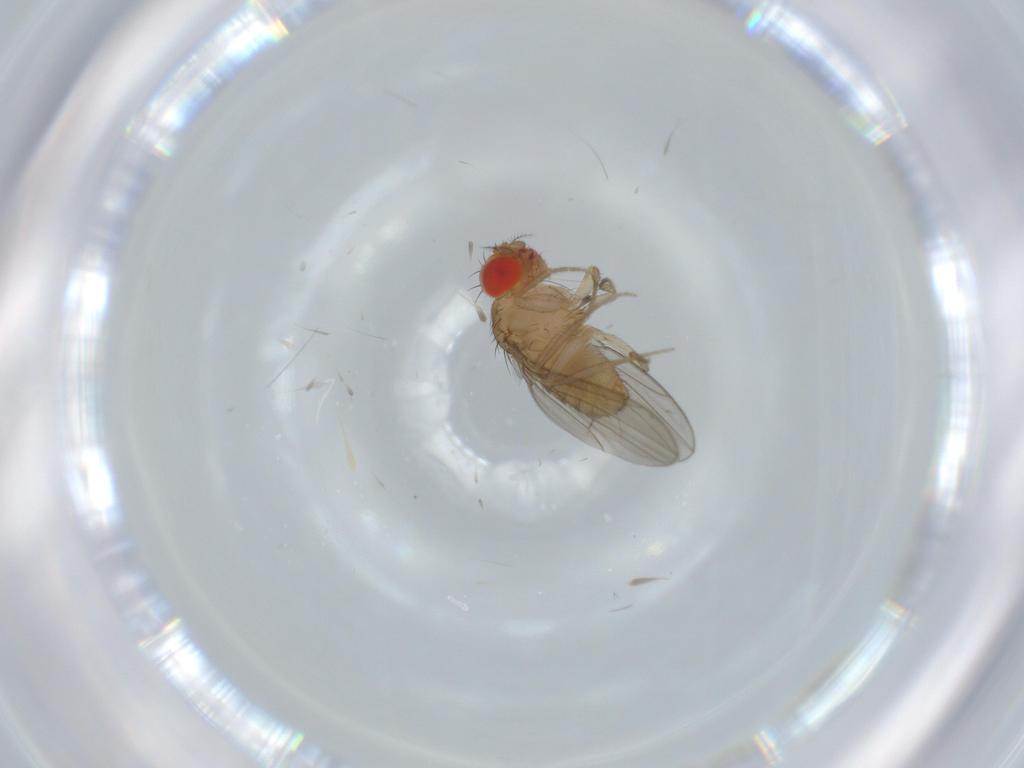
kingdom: Animalia
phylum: Arthropoda
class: Insecta
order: Diptera
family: Drosophilidae
